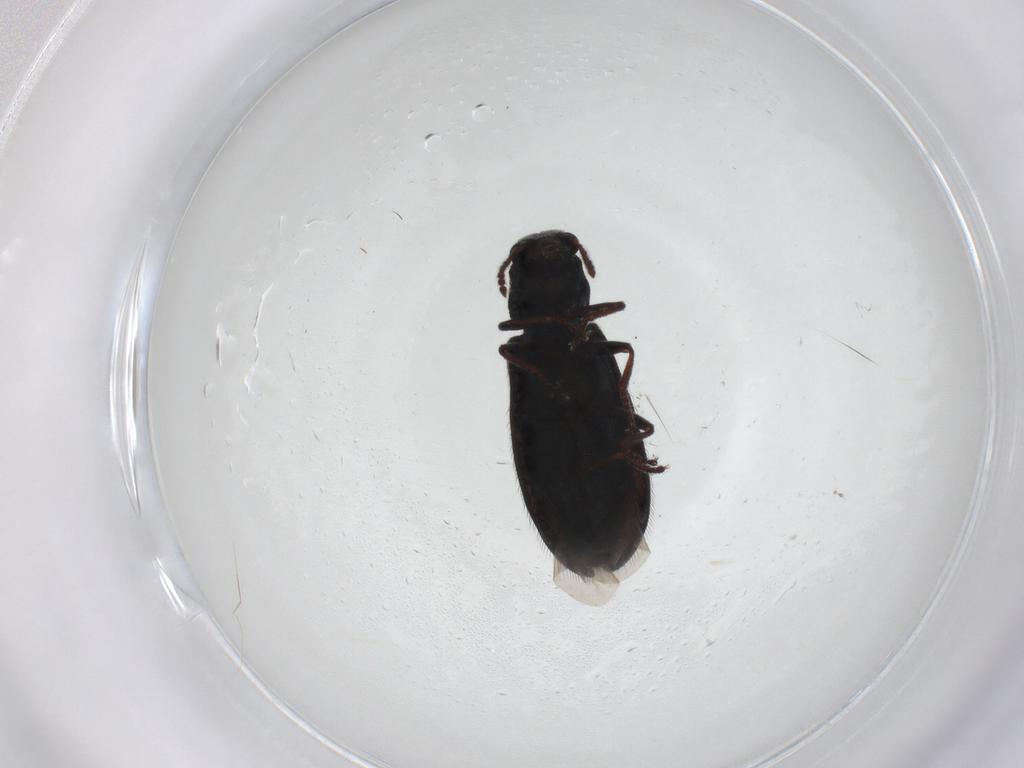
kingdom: Animalia
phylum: Arthropoda
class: Insecta
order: Coleoptera
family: Melyridae
